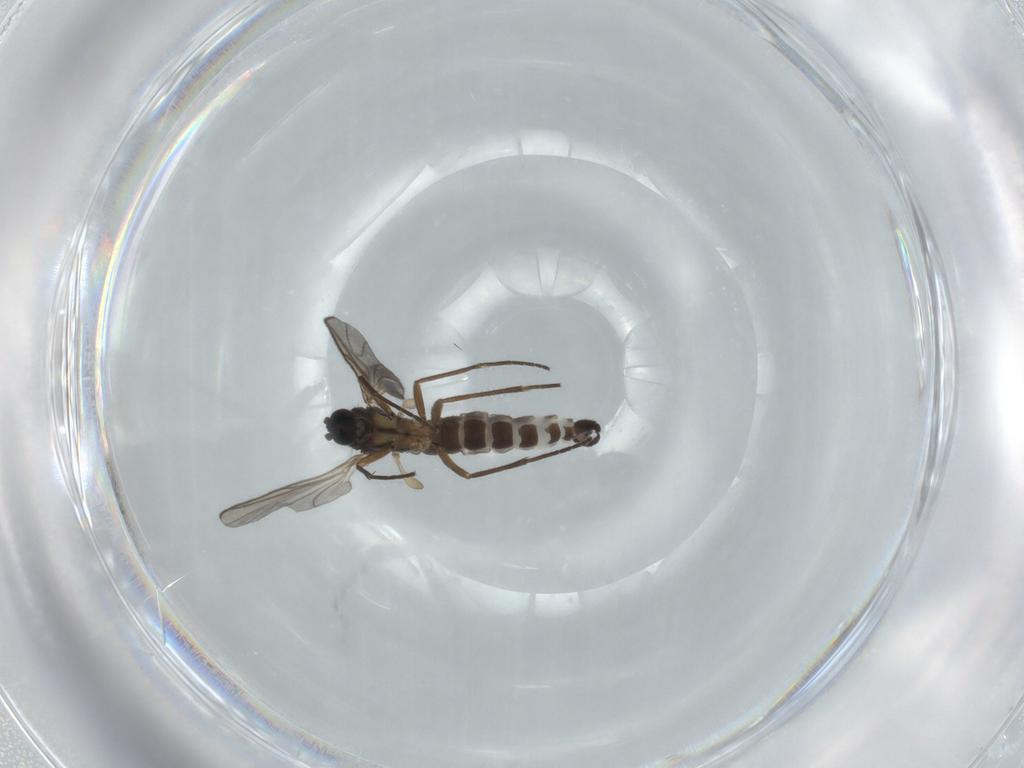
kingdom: Animalia
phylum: Arthropoda
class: Insecta
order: Diptera
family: Sciaridae
